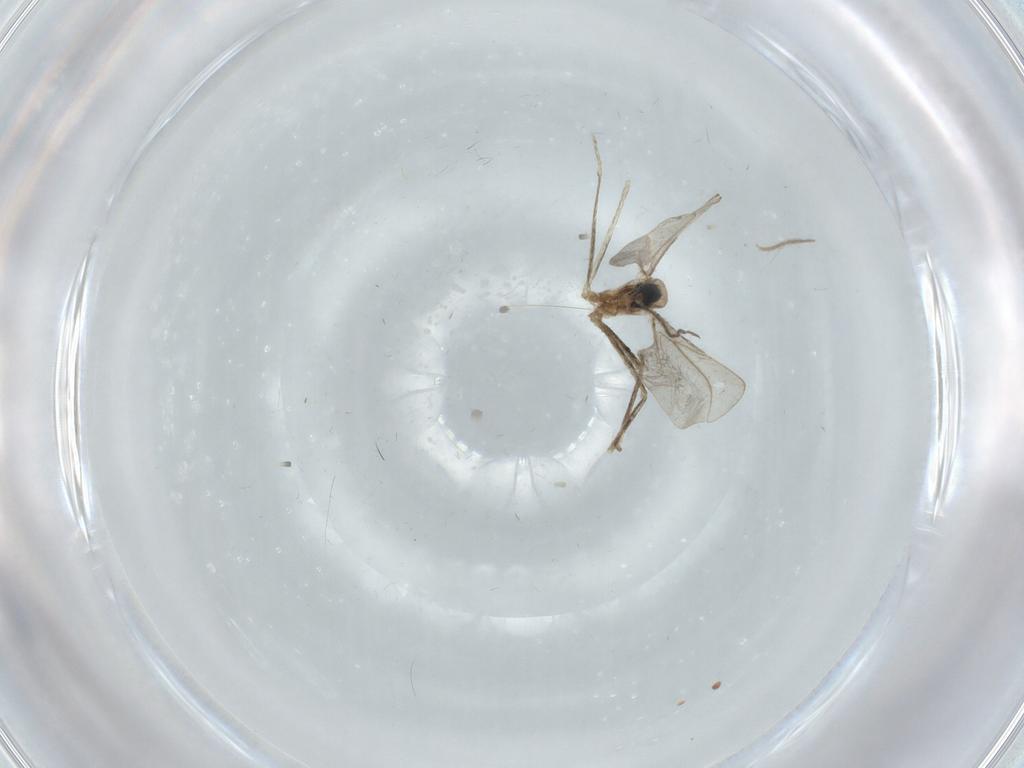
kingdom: Animalia
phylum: Arthropoda
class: Insecta
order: Diptera
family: Cecidomyiidae
